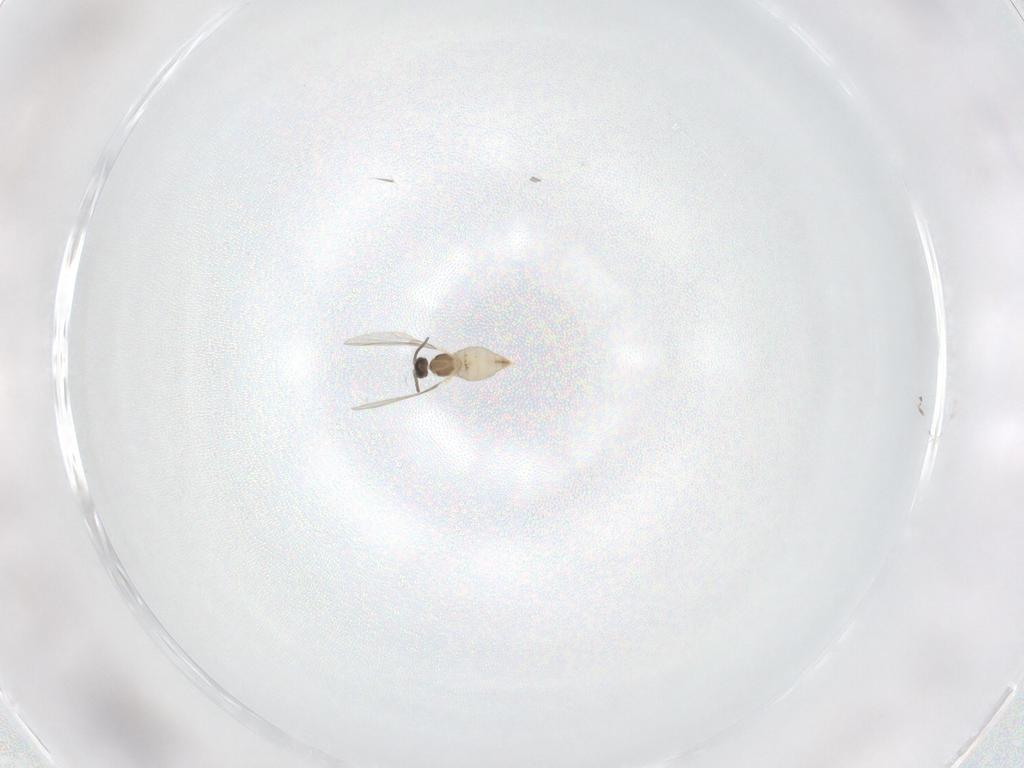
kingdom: Animalia
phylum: Arthropoda
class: Insecta
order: Diptera
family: Cecidomyiidae
